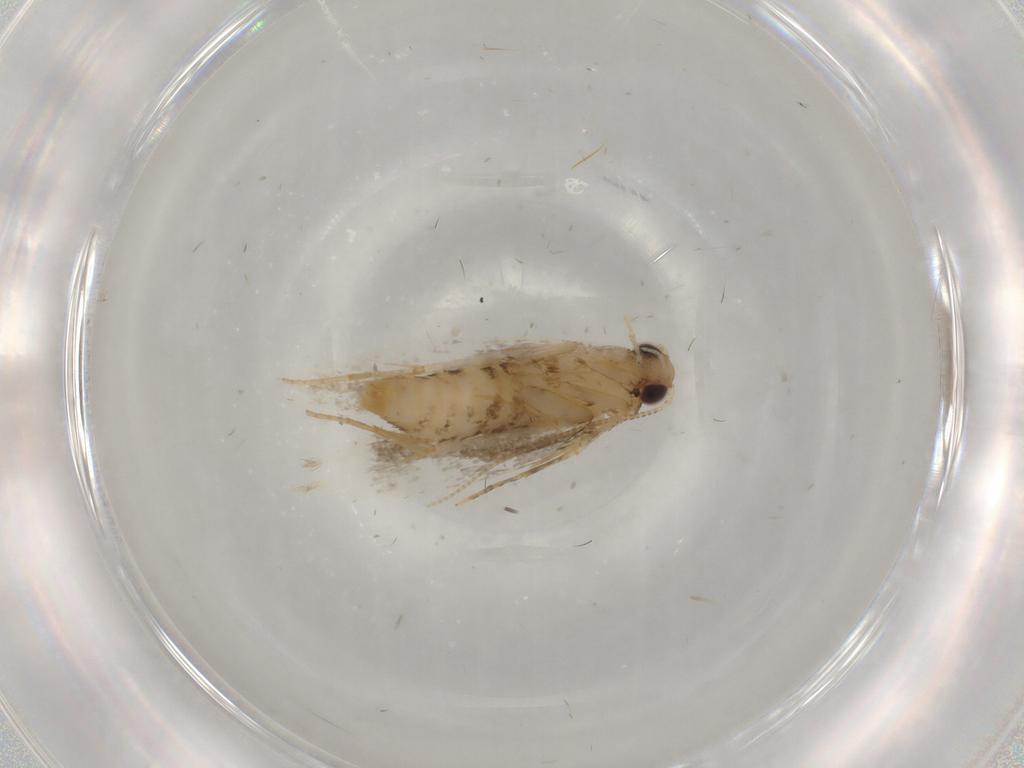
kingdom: Animalia
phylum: Arthropoda
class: Insecta
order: Lepidoptera
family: Tineidae
